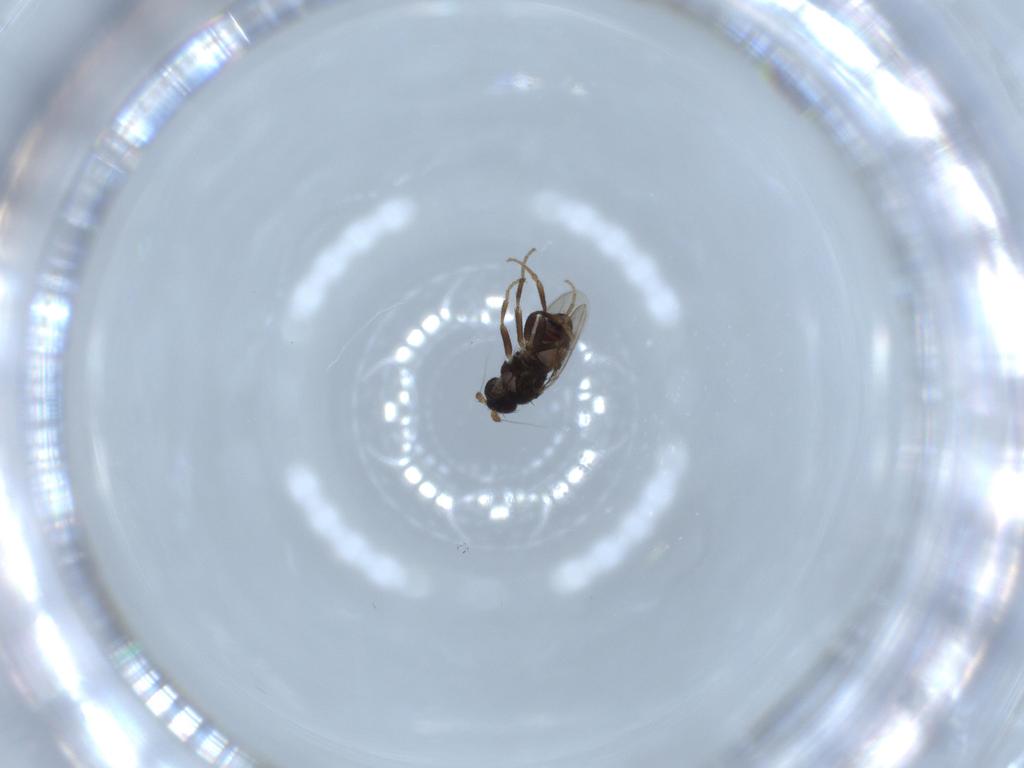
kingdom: Animalia
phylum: Arthropoda
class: Insecta
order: Diptera
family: Sphaeroceridae
